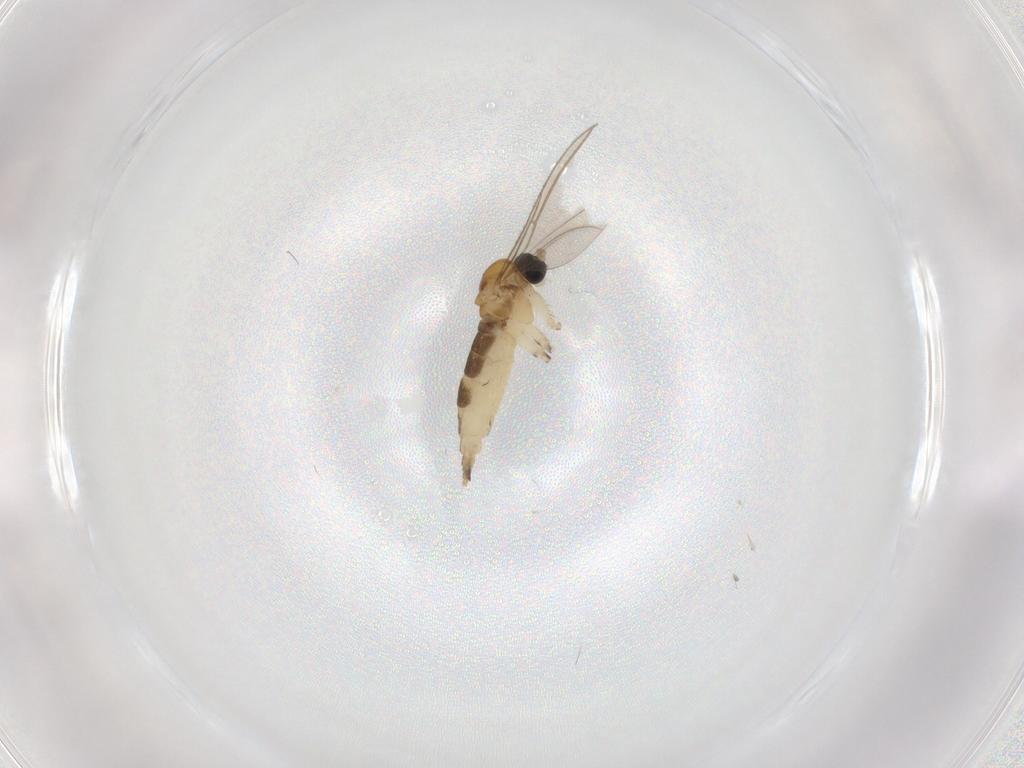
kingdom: Animalia
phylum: Arthropoda
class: Insecta
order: Diptera
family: Sciaridae
